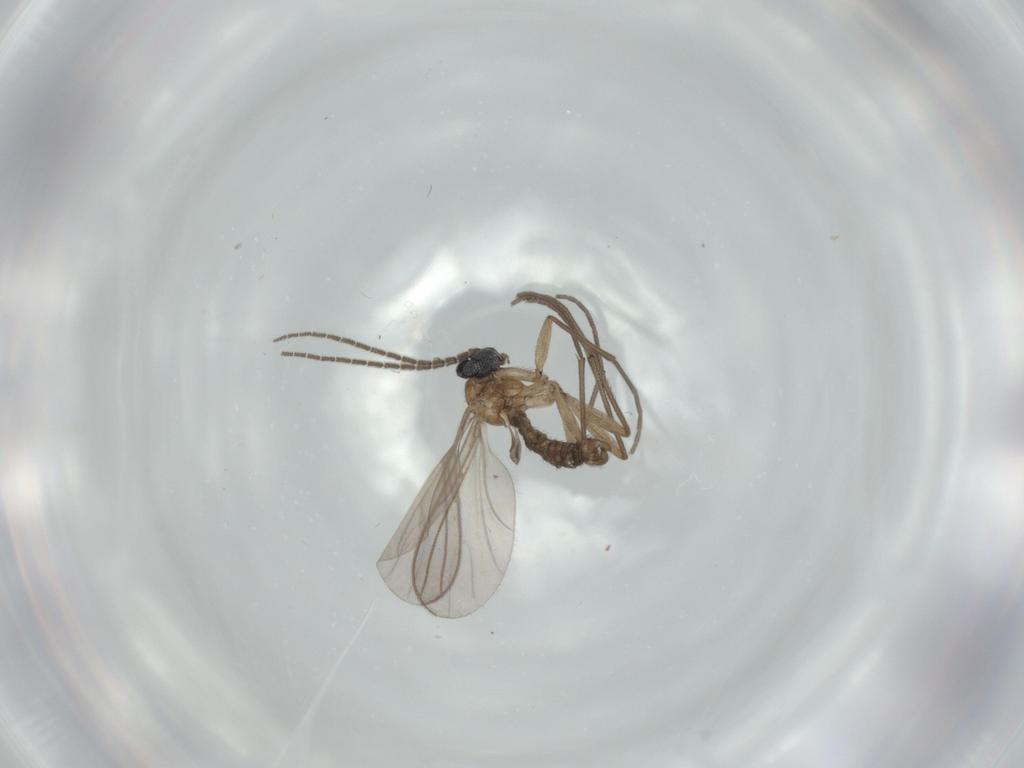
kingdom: Animalia
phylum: Arthropoda
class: Insecta
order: Diptera
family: Sciaridae
